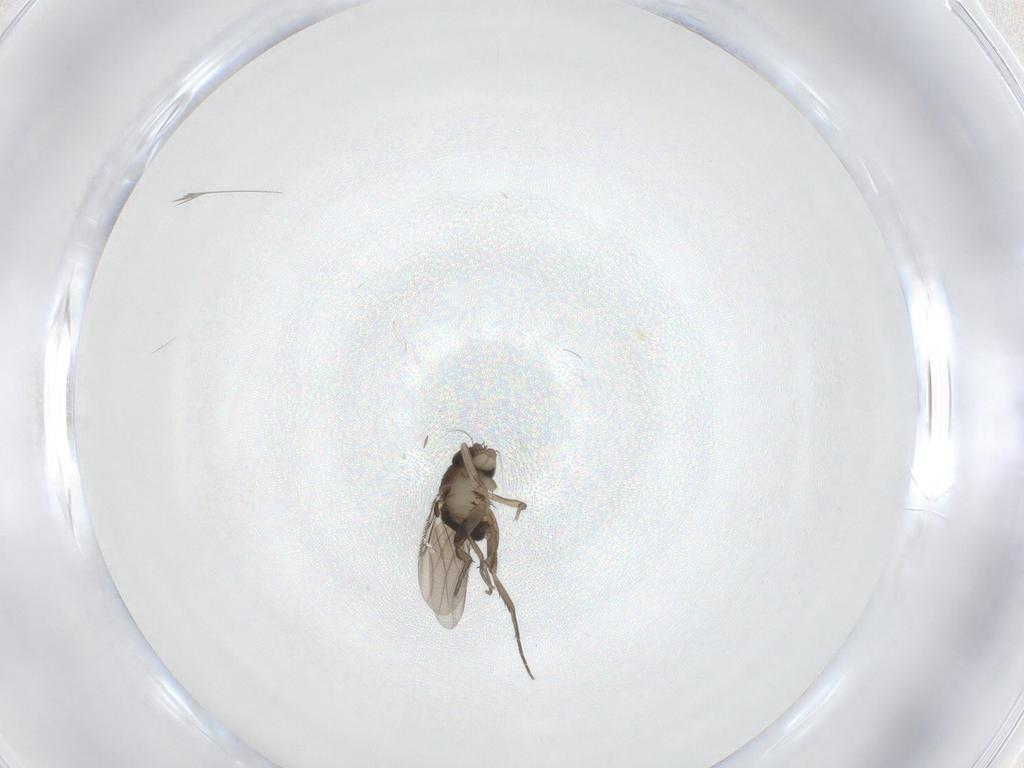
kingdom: Animalia
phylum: Arthropoda
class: Insecta
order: Diptera
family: Phoridae
